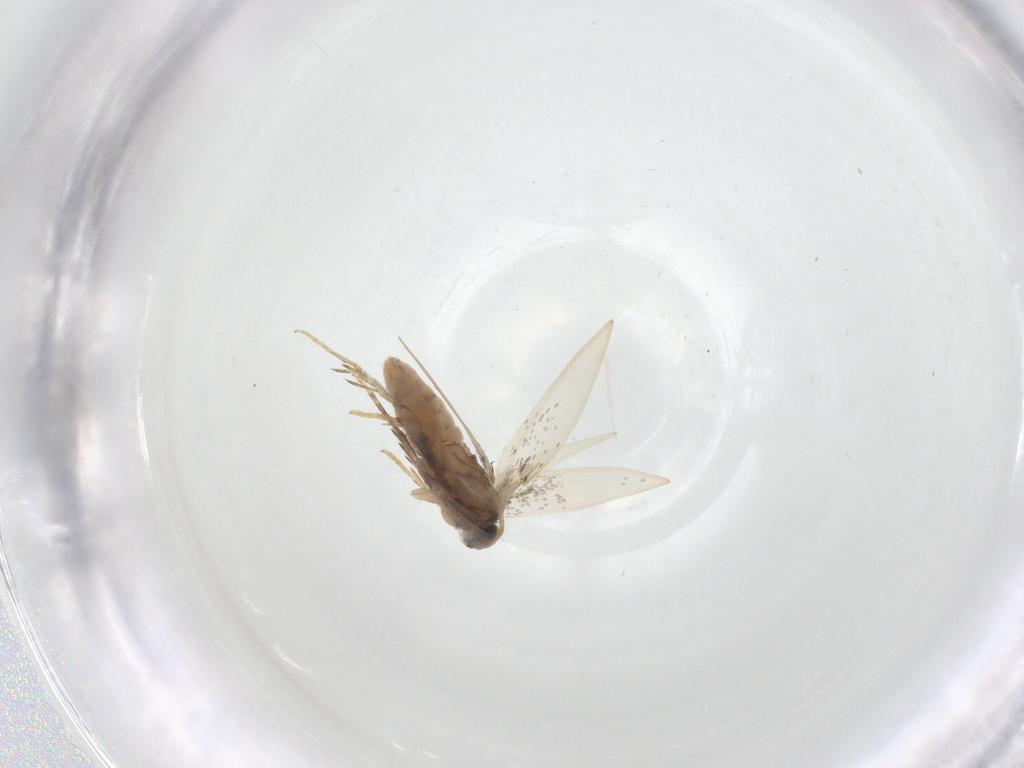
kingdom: Animalia
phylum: Arthropoda
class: Insecta
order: Lepidoptera
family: Nepticulidae
